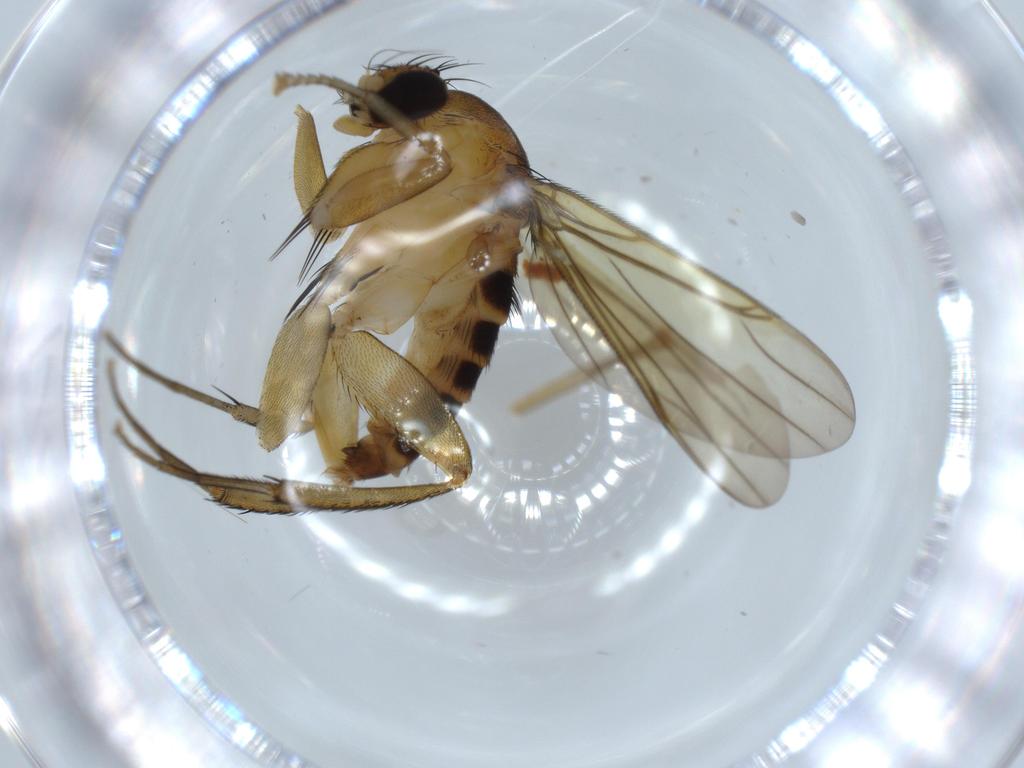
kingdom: Animalia
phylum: Arthropoda
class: Insecta
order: Diptera
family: Phoridae
